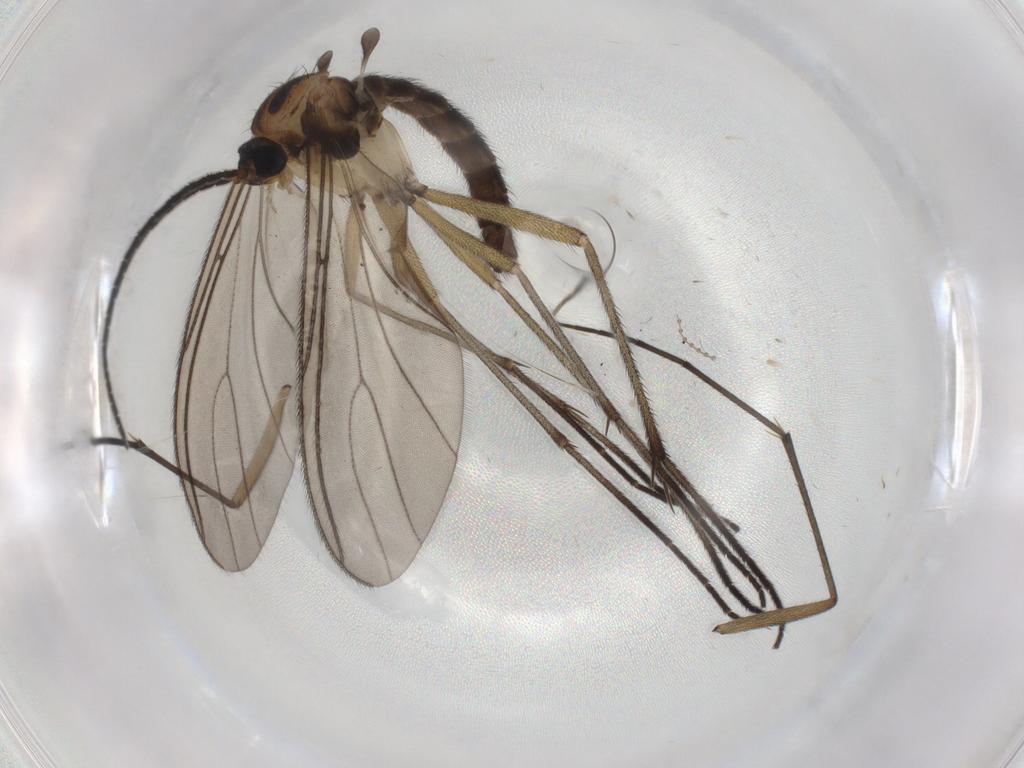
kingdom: Animalia
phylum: Arthropoda
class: Insecta
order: Diptera
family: Sciaridae
